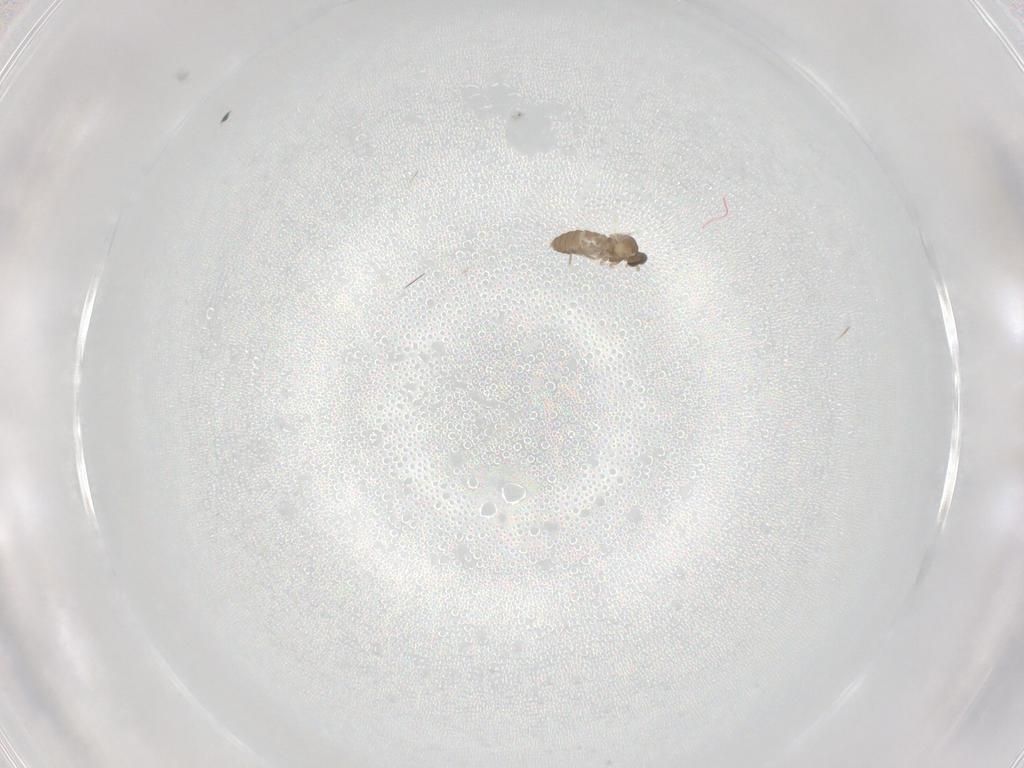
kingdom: Animalia
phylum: Arthropoda
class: Insecta
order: Diptera
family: Cecidomyiidae
